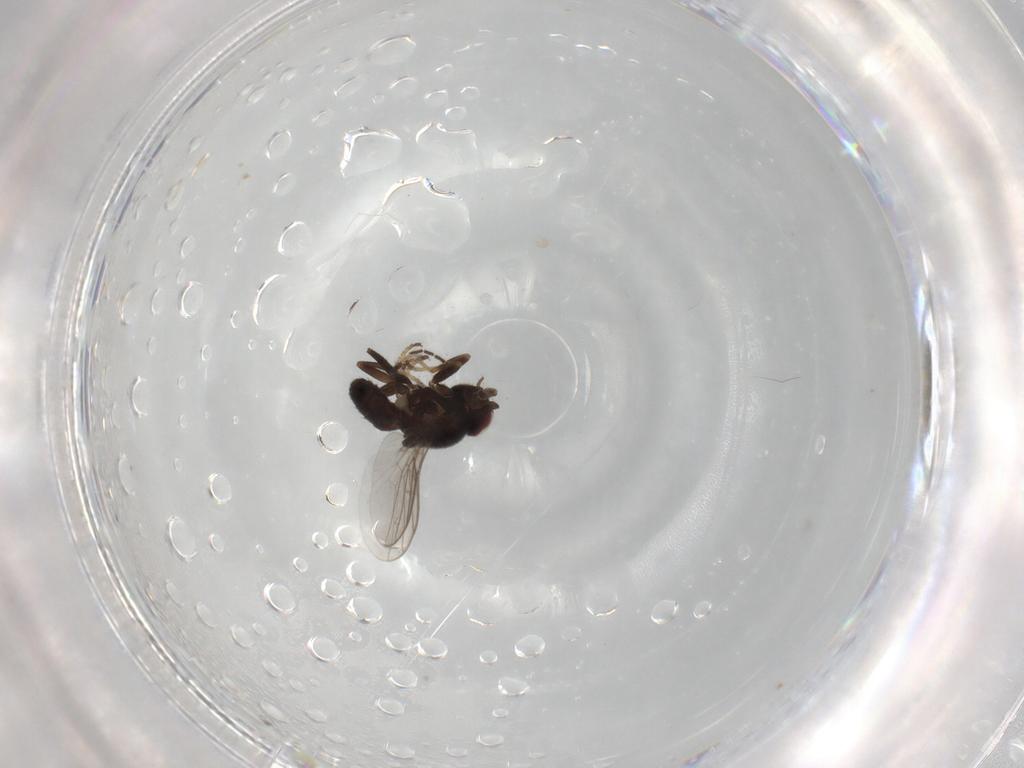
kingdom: Animalia
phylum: Arthropoda
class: Insecta
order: Diptera
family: Chloropidae
